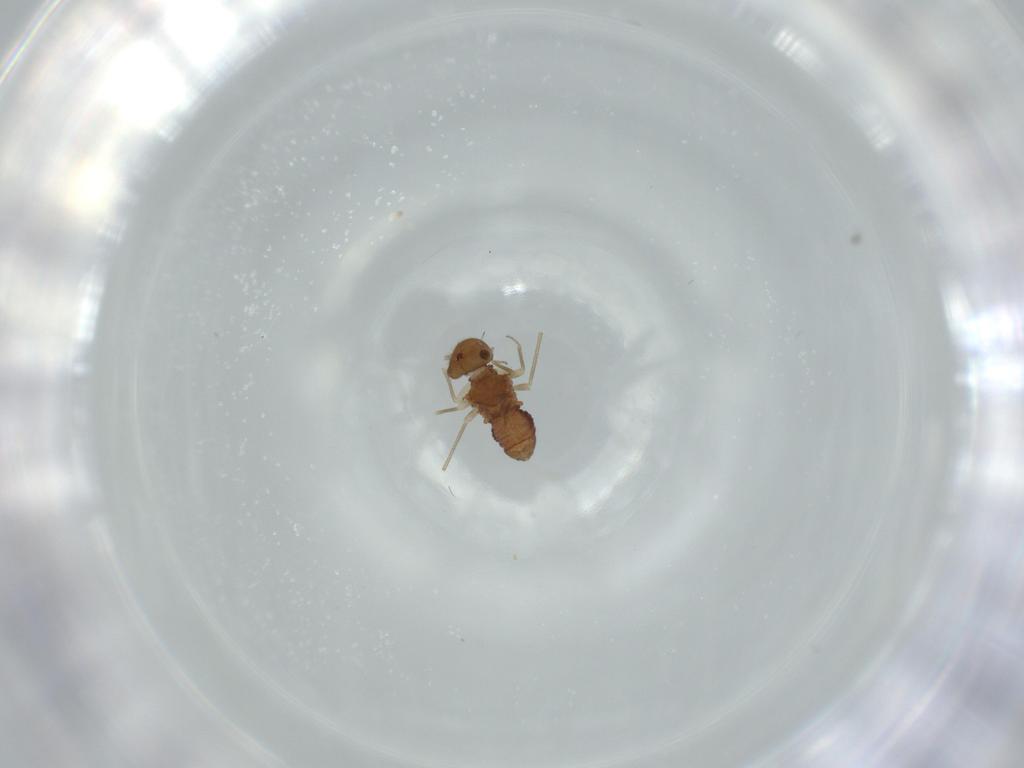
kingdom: Animalia
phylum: Arthropoda
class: Insecta
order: Psocodea
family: Ectopsocidae
